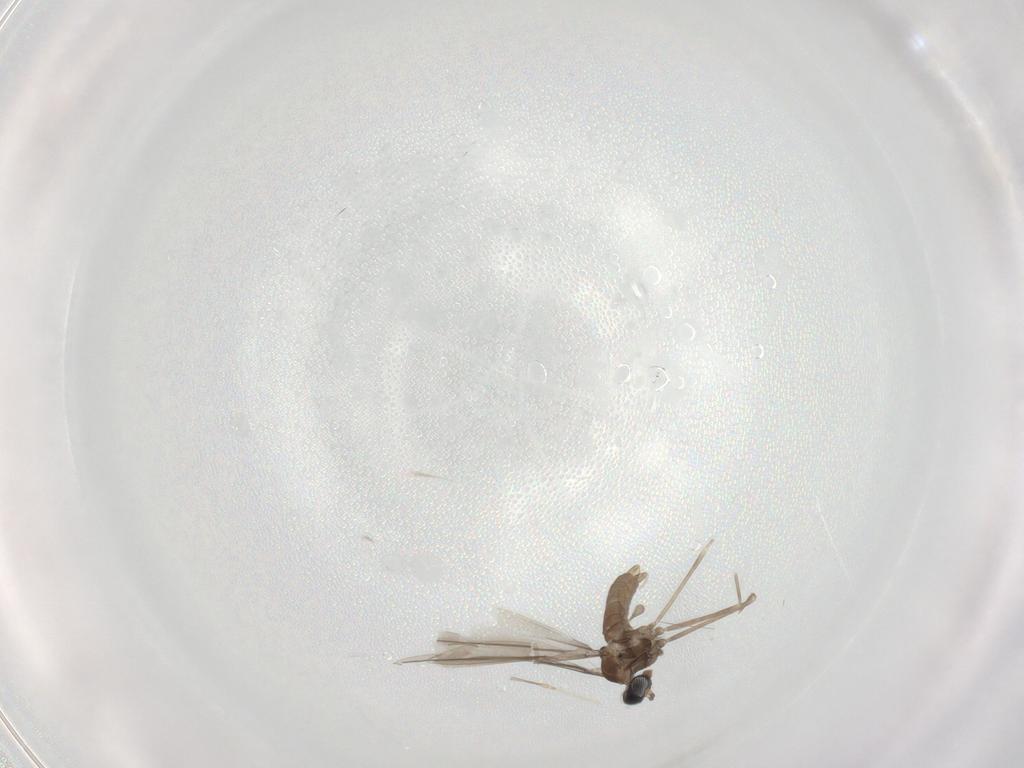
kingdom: Animalia
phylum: Arthropoda
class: Insecta
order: Diptera
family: Cecidomyiidae
